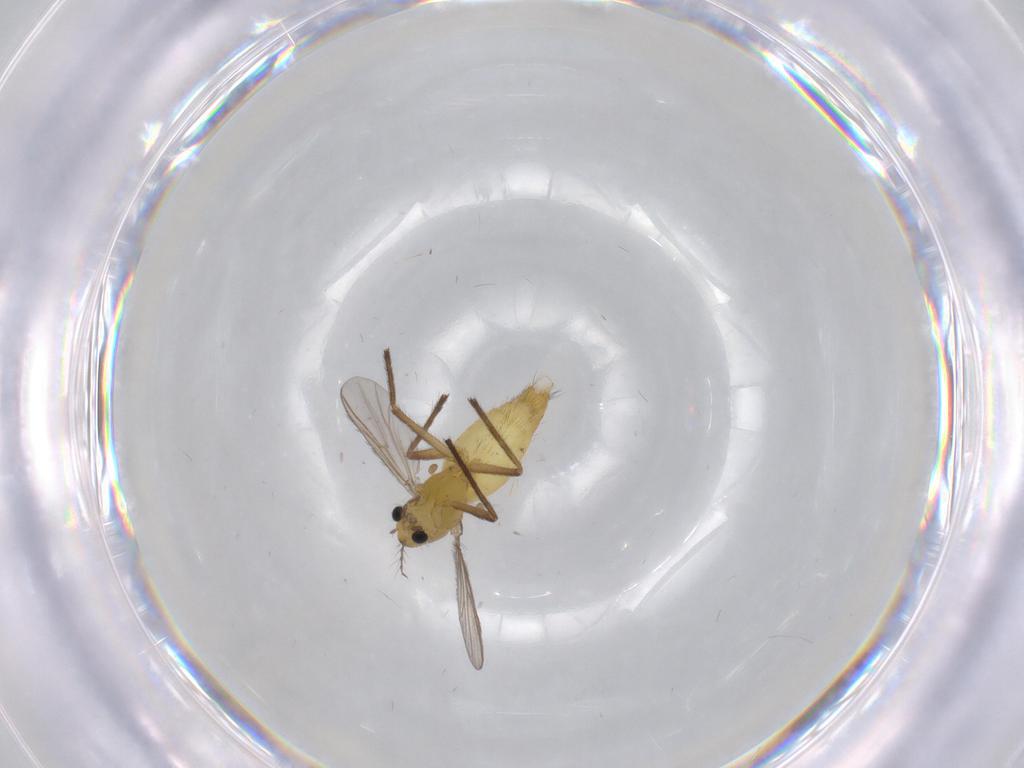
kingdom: Animalia
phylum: Arthropoda
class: Insecta
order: Diptera
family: Chironomidae
